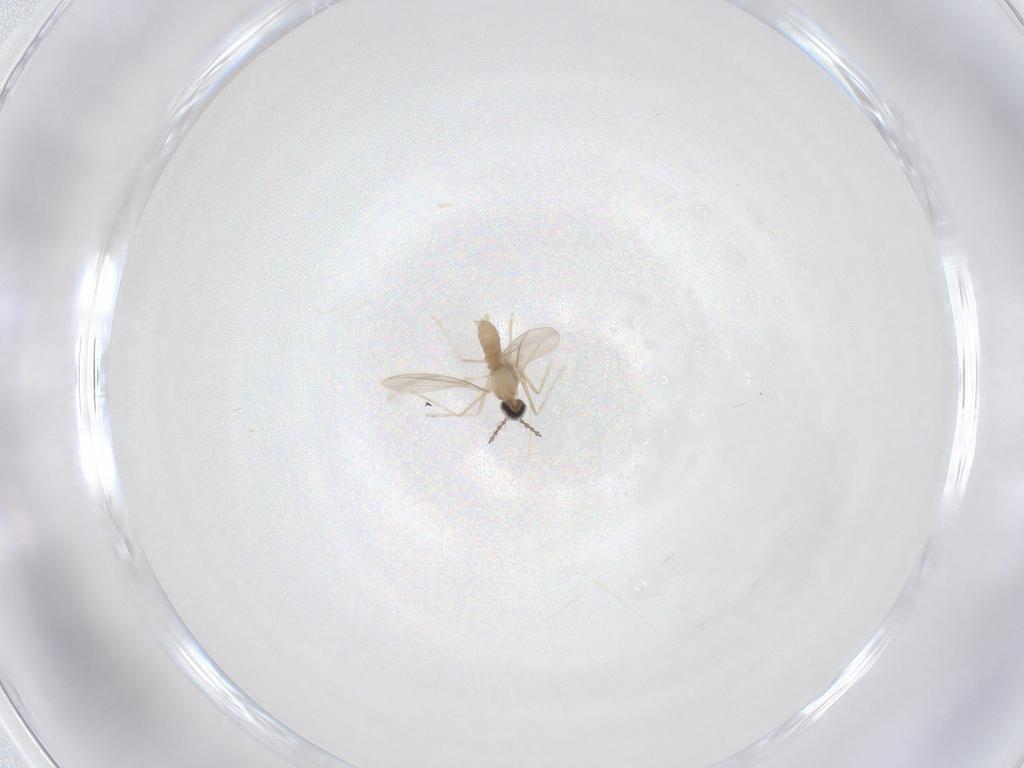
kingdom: Animalia
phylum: Arthropoda
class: Insecta
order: Diptera
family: Cecidomyiidae
